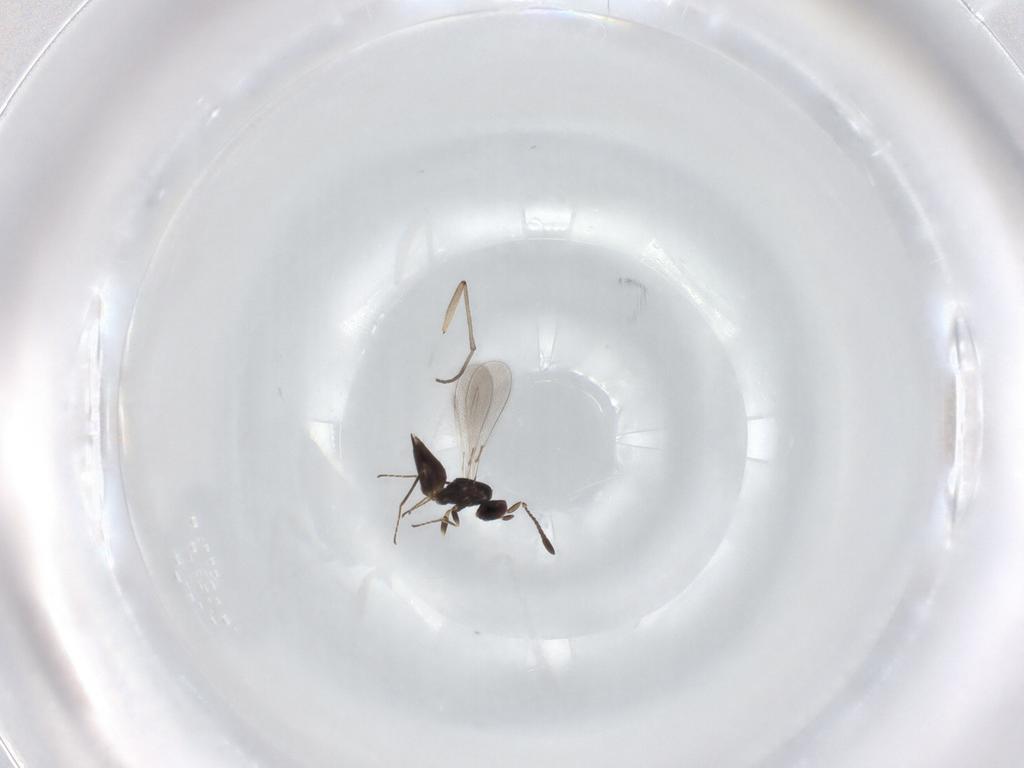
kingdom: Animalia
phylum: Arthropoda
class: Insecta
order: Hymenoptera
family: Mymaridae
